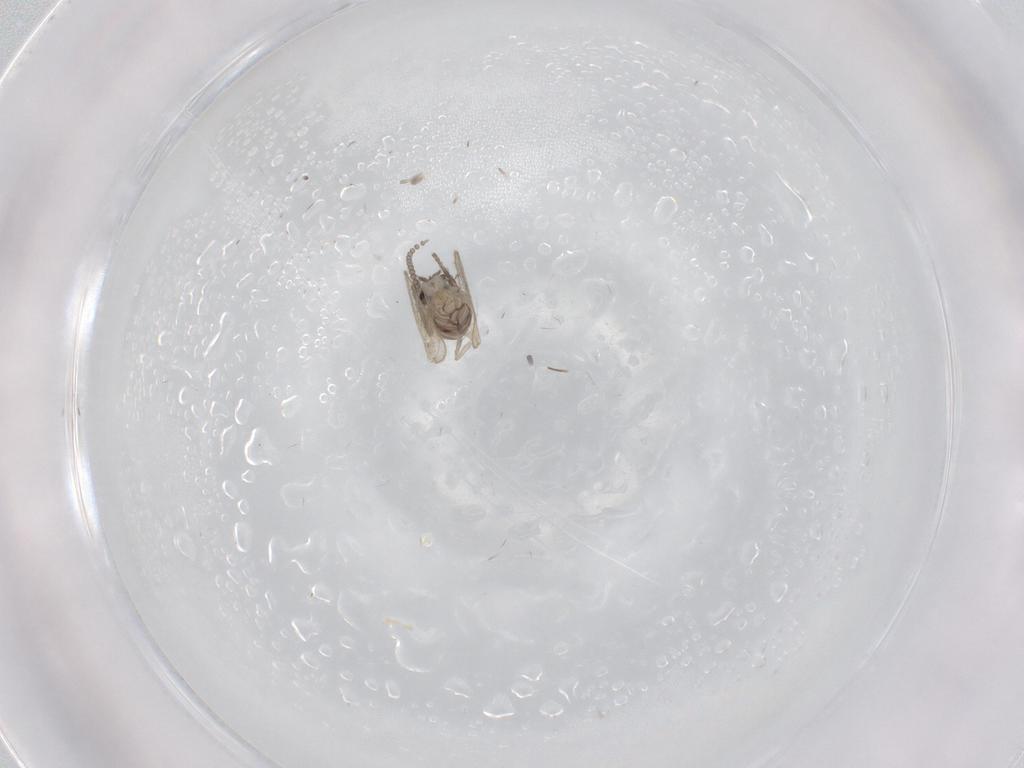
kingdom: Animalia
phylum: Arthropoda
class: Insecta
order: Diptera
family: Psychodidae
